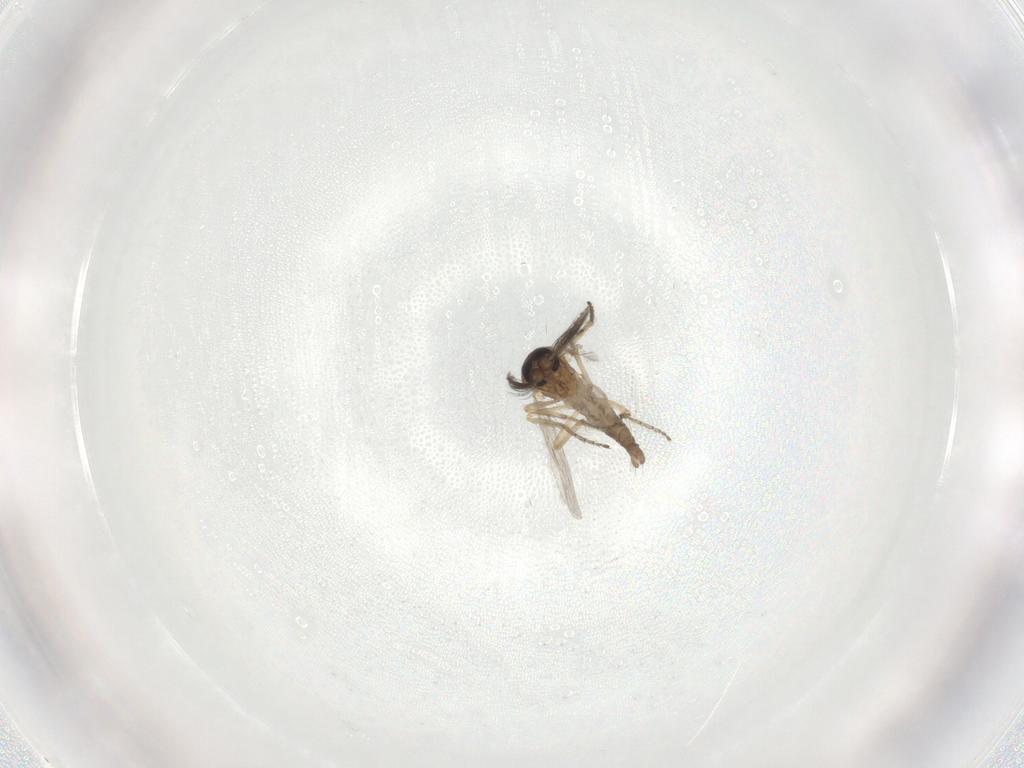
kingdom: Animalia
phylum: Arthropoda
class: Insecta
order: Diptera
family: Ceratopogonidae
